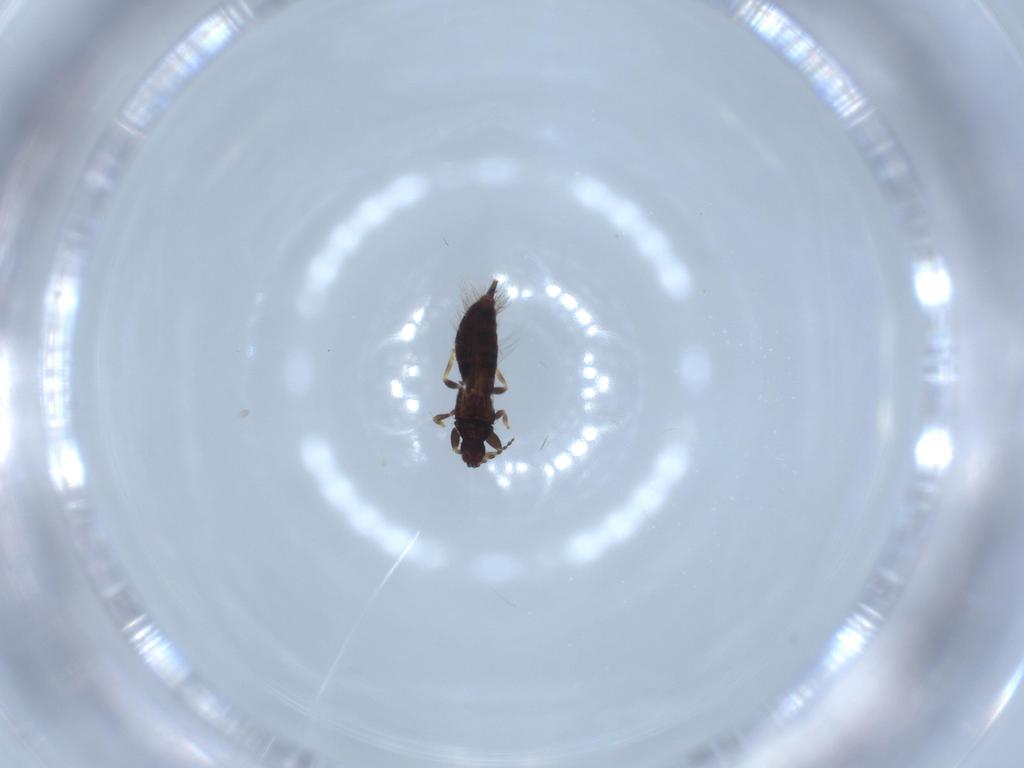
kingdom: Animalia
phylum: Arthropoda
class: Insecta
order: Thysanoptera
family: Phlaeothripidae
